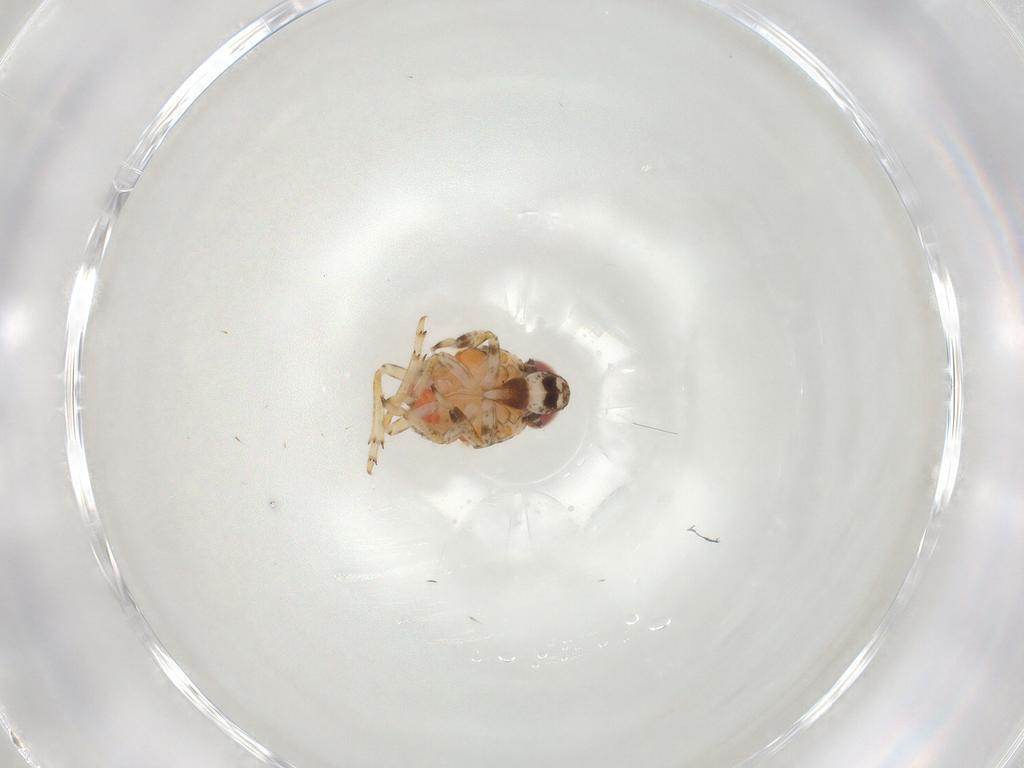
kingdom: Animalia
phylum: Arthropoda
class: Insecta
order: Hemiptera
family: Issidae
